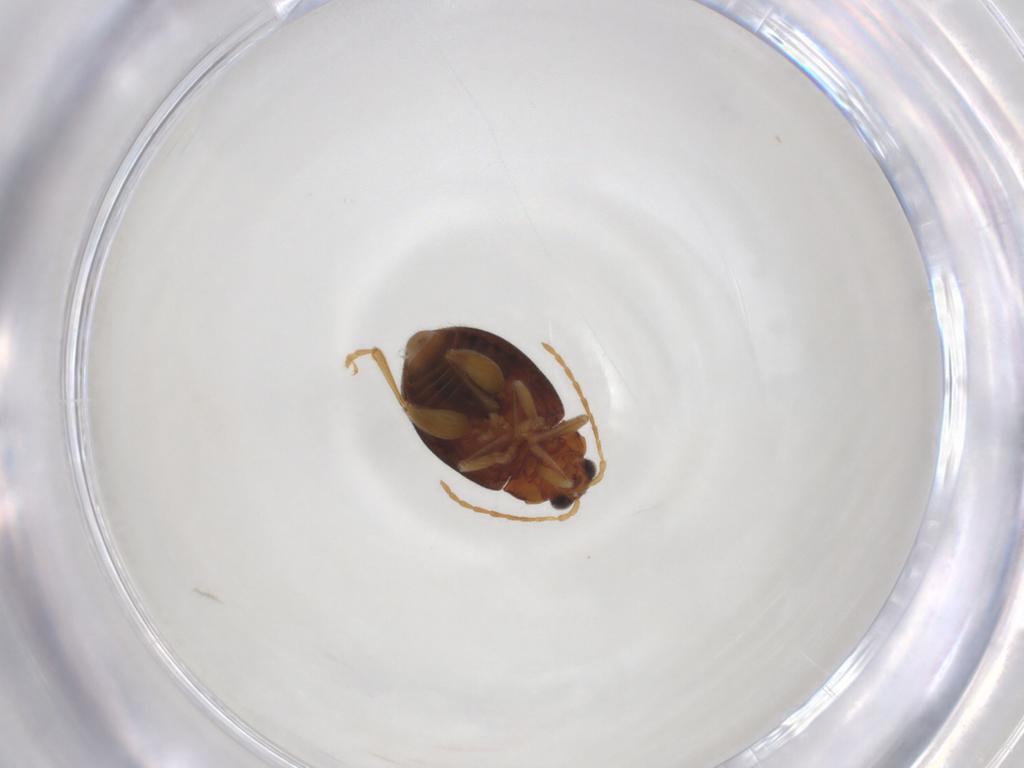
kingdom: Animalia
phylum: Arthropoda
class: Insecta
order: Coleoptera
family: Chrysomelidae
